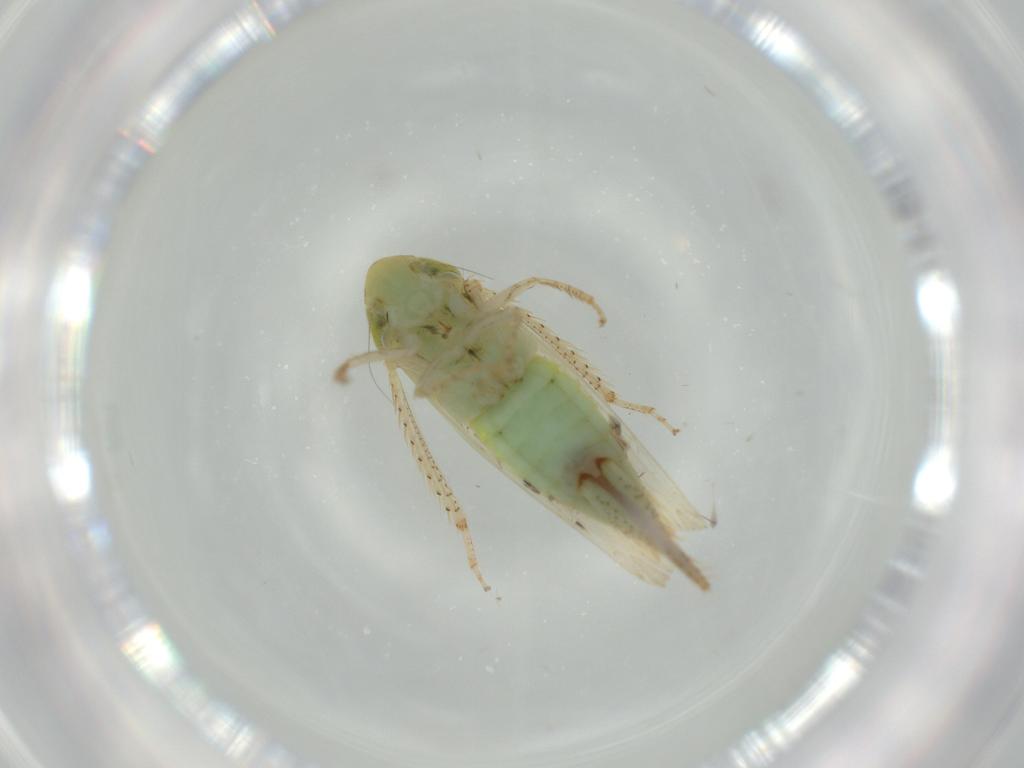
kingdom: Animalia
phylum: Arthropoda
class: Insecta
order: Hemiptera
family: Cicadellidae
